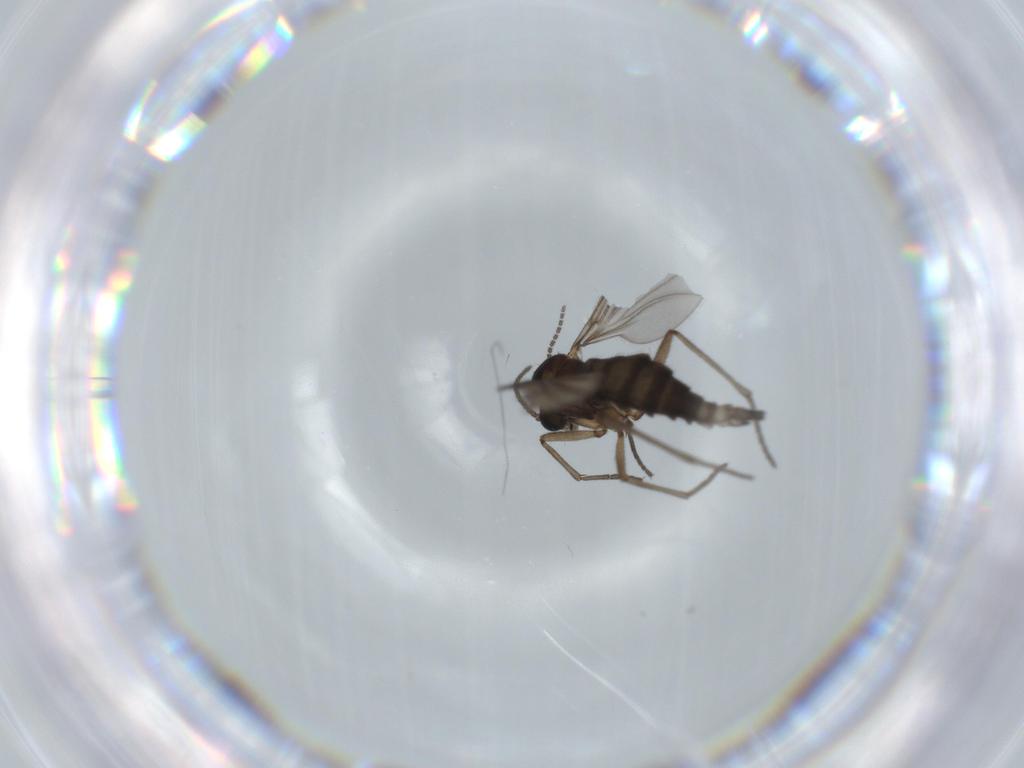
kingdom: Animalia
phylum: Arthropoda
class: Insecta
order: Diptera
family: Sciaridae
